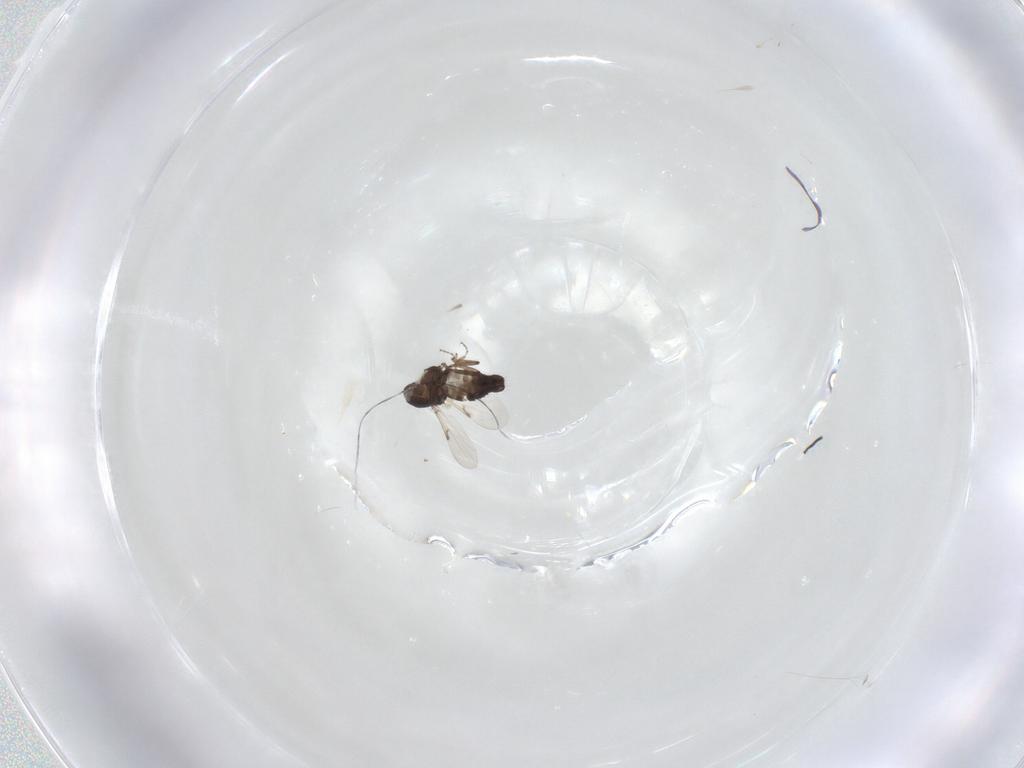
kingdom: Animalia
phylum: Arthropoda
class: Insecta
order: Diptera
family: Ceratopogonidae
